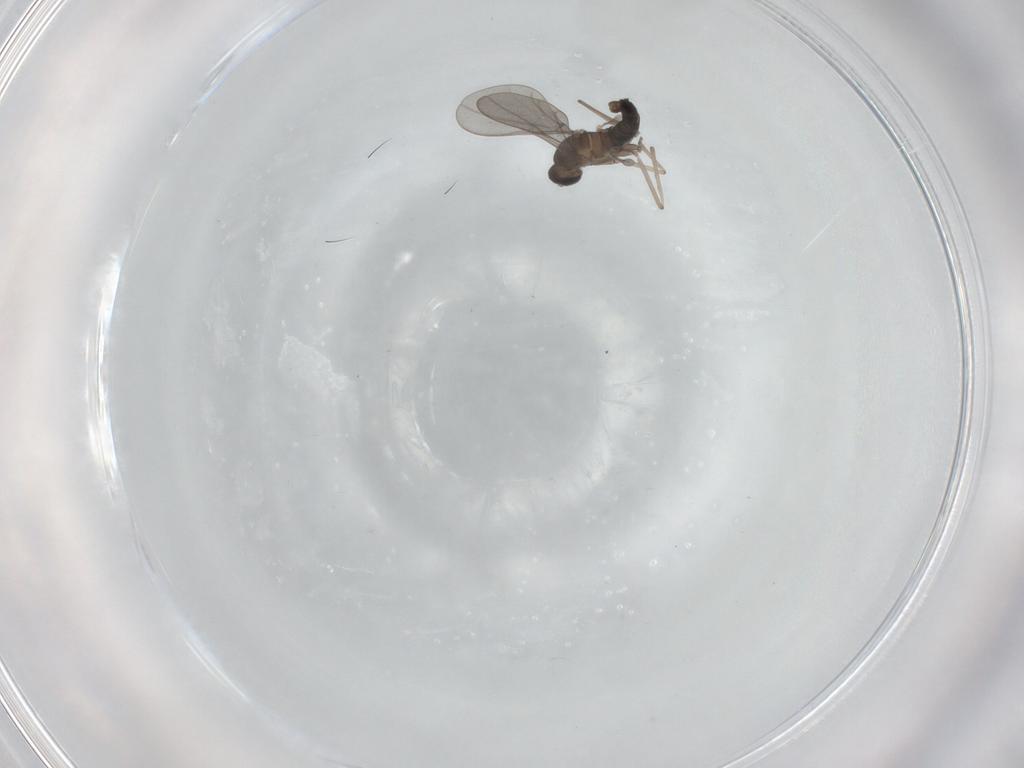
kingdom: Animalia
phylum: Arthropoda
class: Insecta
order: Diptera
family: Cecidomyiidae
